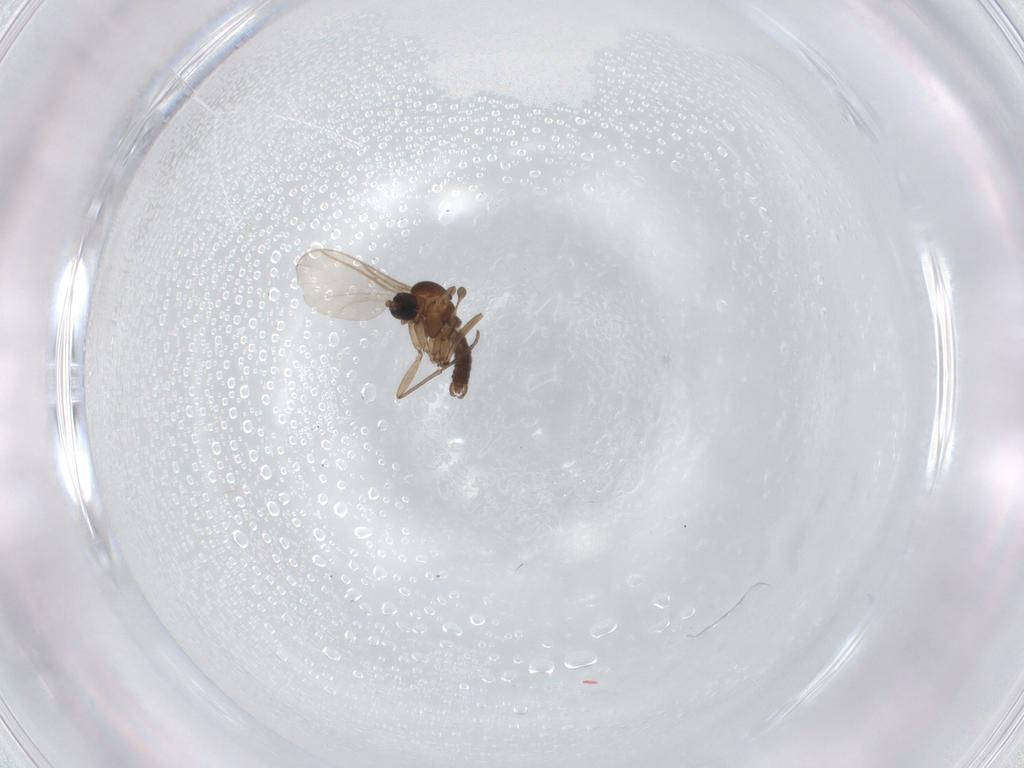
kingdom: Animalia
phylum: Arthropoda
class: Insecta
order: Diptera
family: Sciaridae
